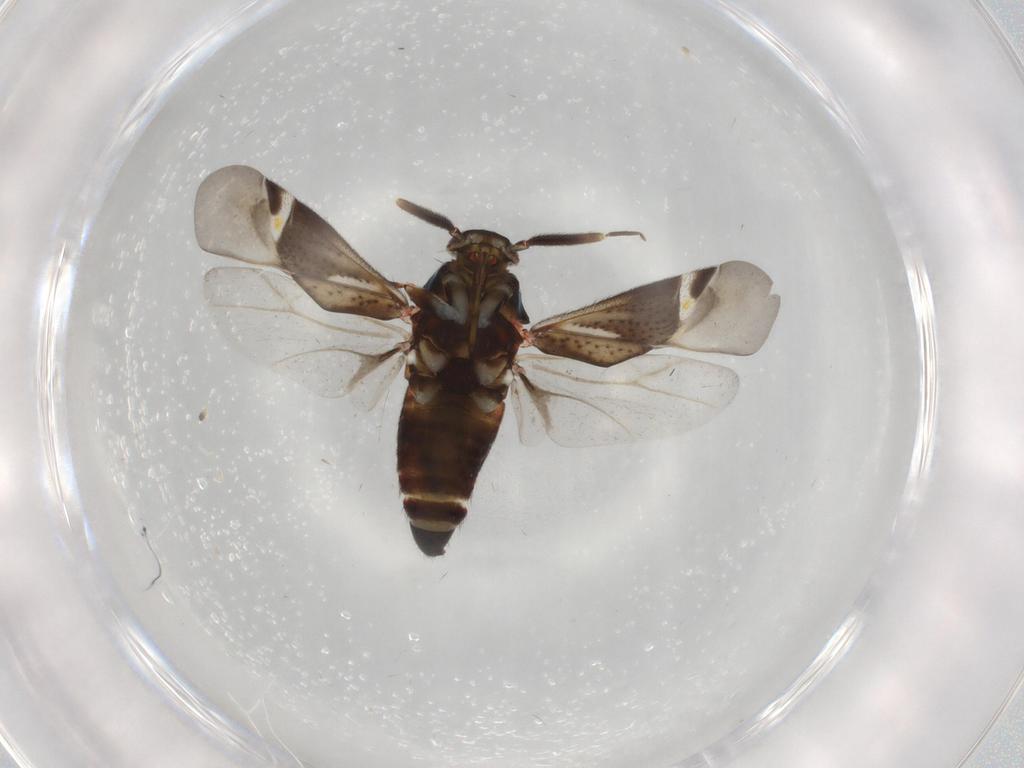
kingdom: Animalia
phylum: Arthropoda
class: Insecta
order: Hemiptera
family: Miridae
